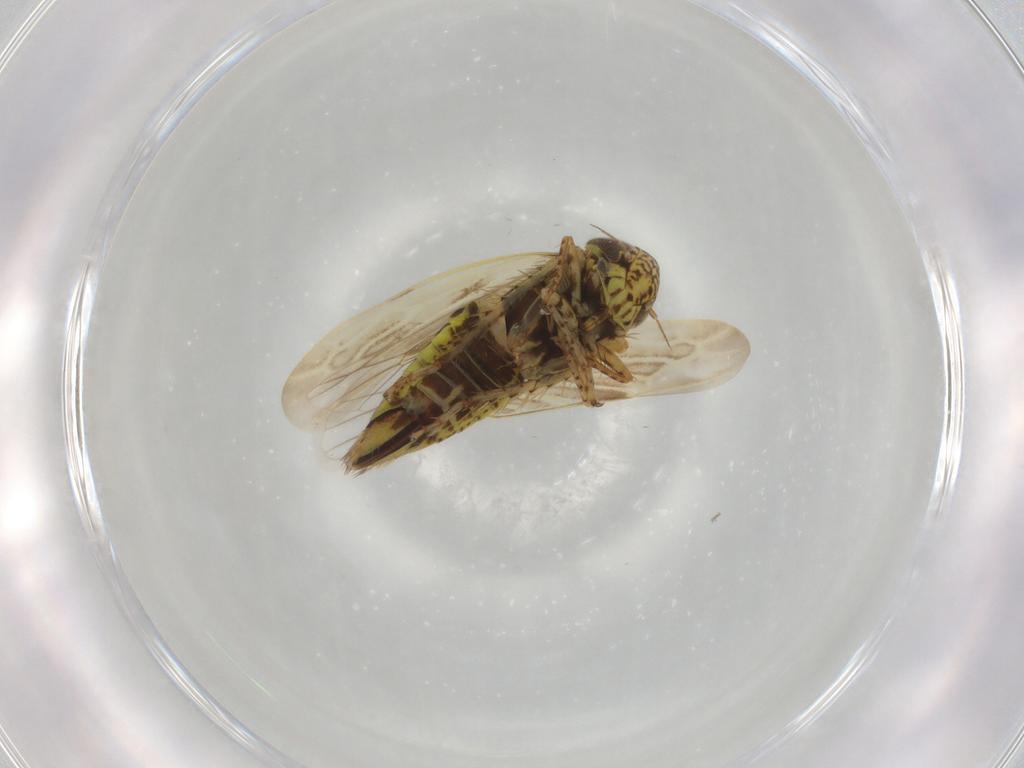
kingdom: Animalia
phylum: Arthropoda
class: Insecta
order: Hemiptera
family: Cicadellidae
